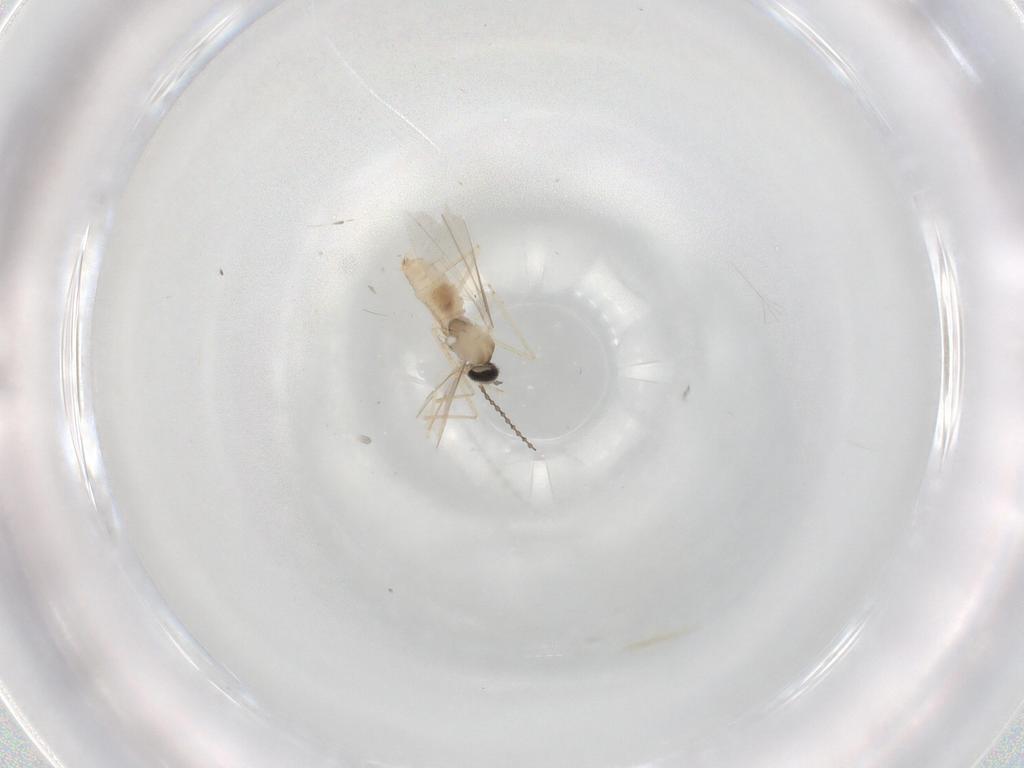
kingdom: Animalia
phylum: Arthropoda
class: Insecta
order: Diptera
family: Cecidomyiidae
